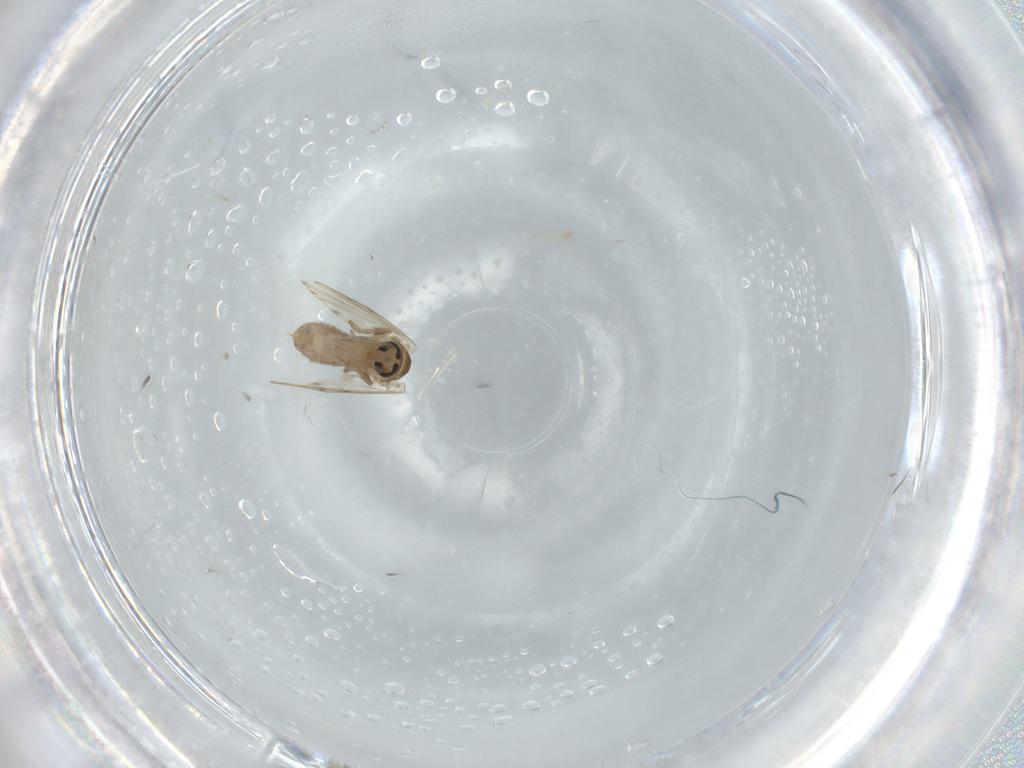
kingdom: Animalia
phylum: Arthropoda
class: Insecta
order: Diptera
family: Psychodidae
